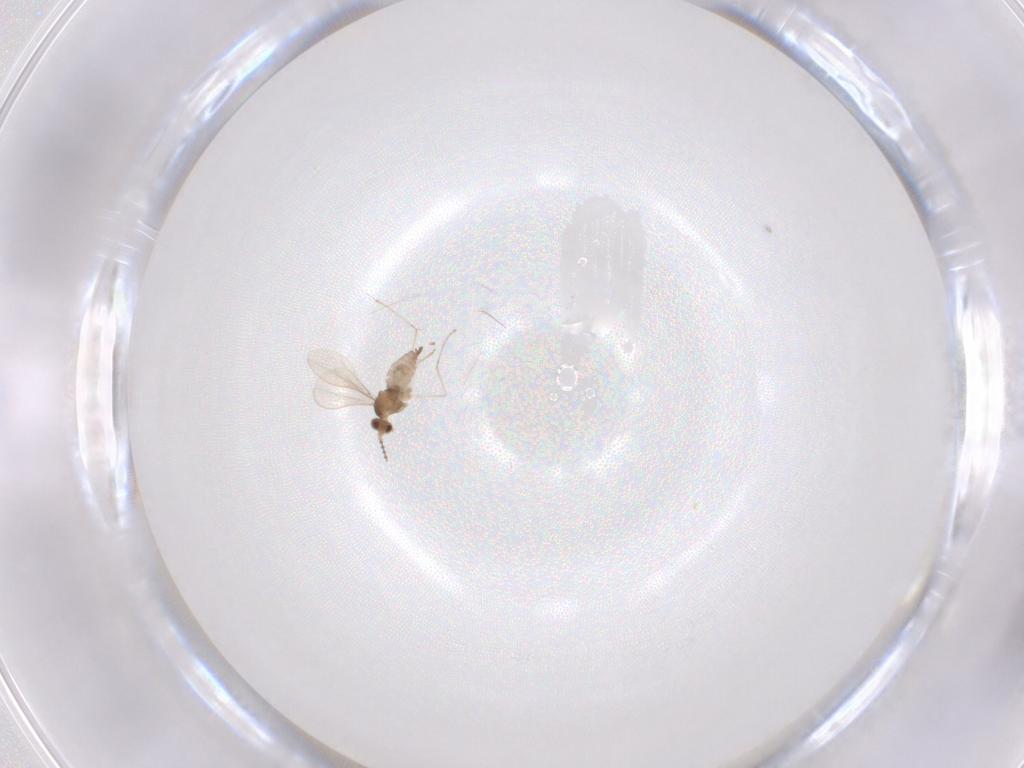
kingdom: Animalia
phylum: Arthropoda
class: Insecta
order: Diptera
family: Cecidomyiidae
